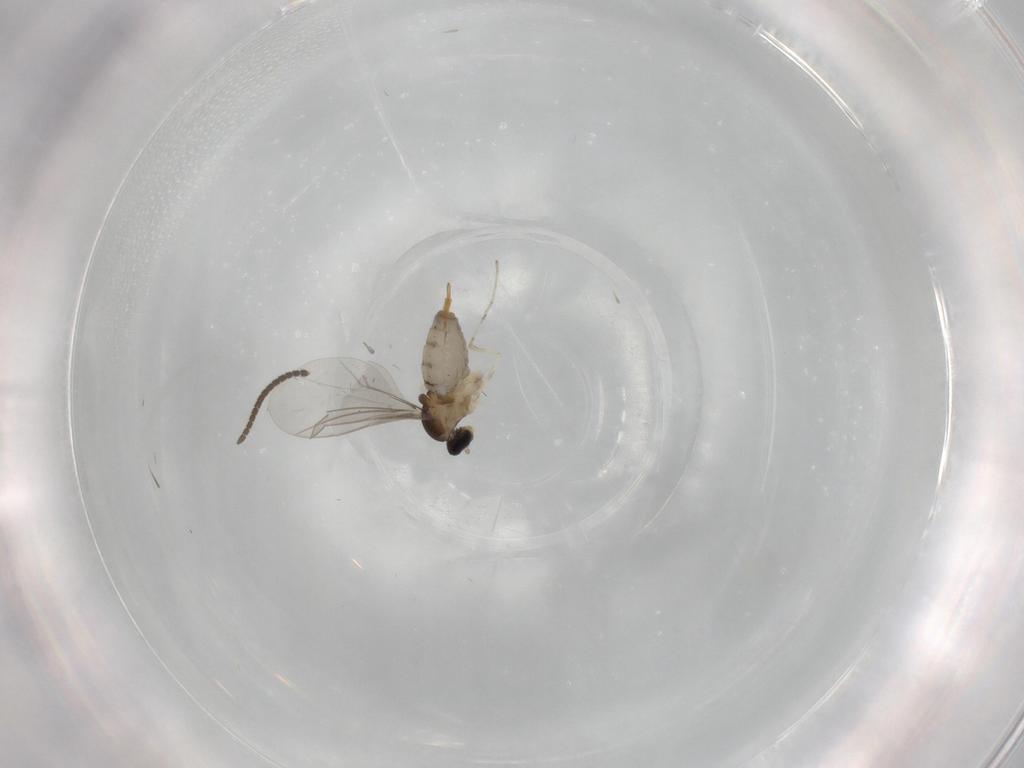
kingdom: Animalia
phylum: Arthropoda
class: Insecta
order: Diptera
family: Cecidomyiidae
